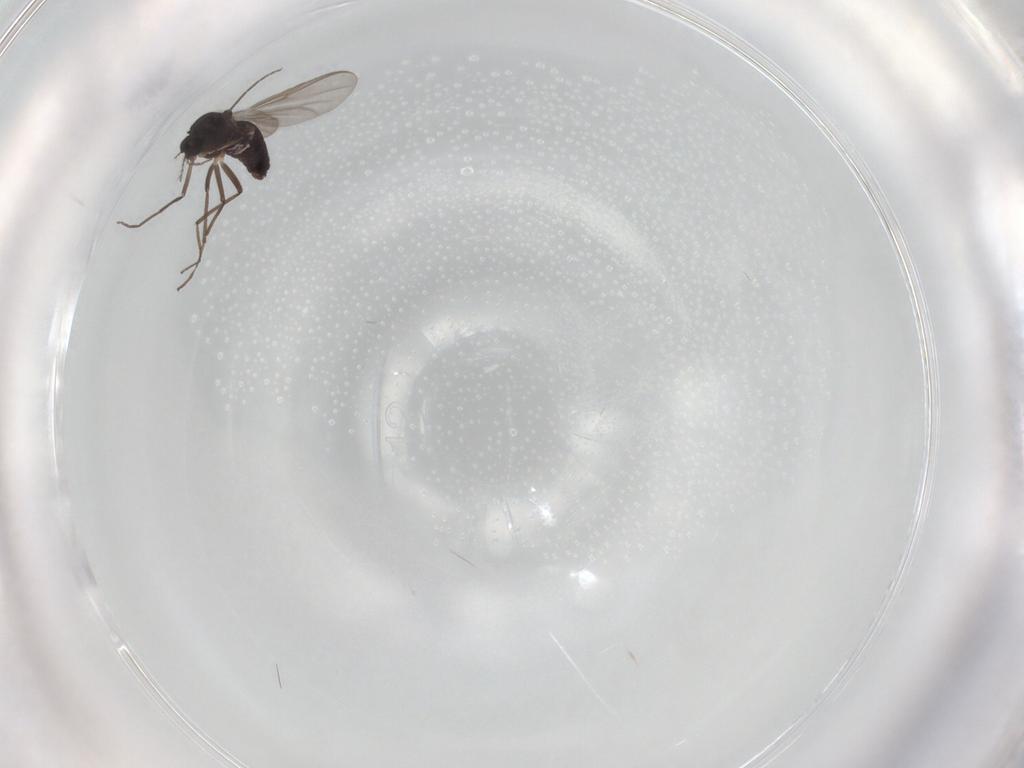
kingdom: Animalia
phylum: Arthropoda
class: Insecta
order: Diptera
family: Chironomidae
